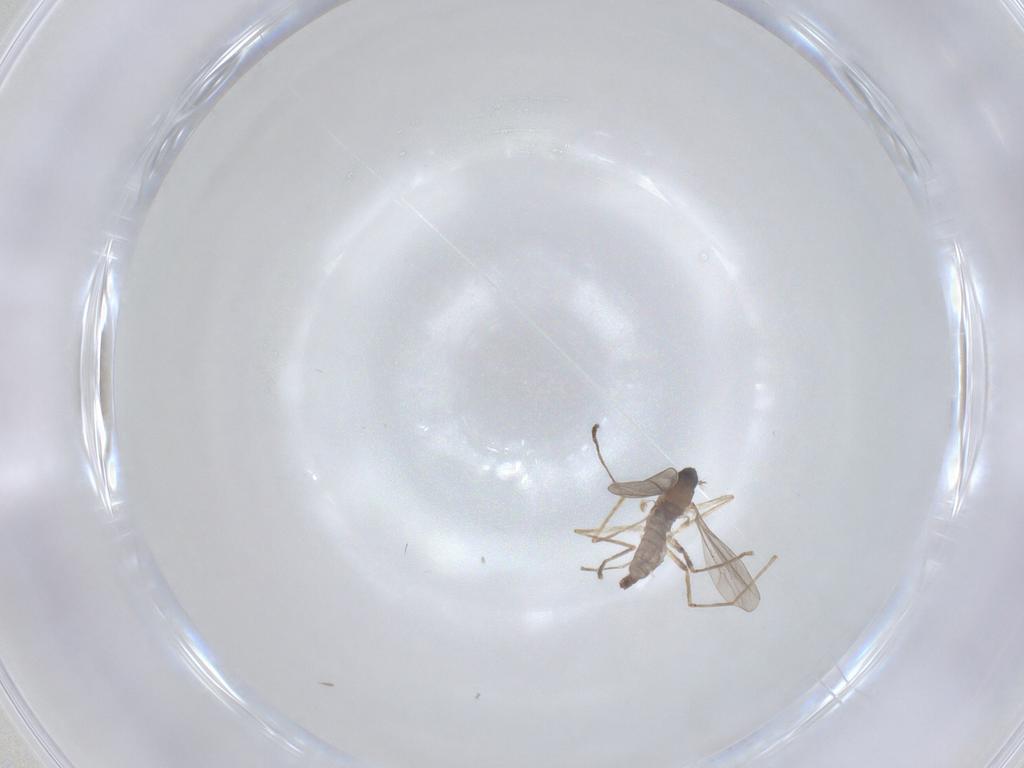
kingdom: Animalia
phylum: Arthropoda
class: Insecta
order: Diptera
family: Cecidomyiidae
